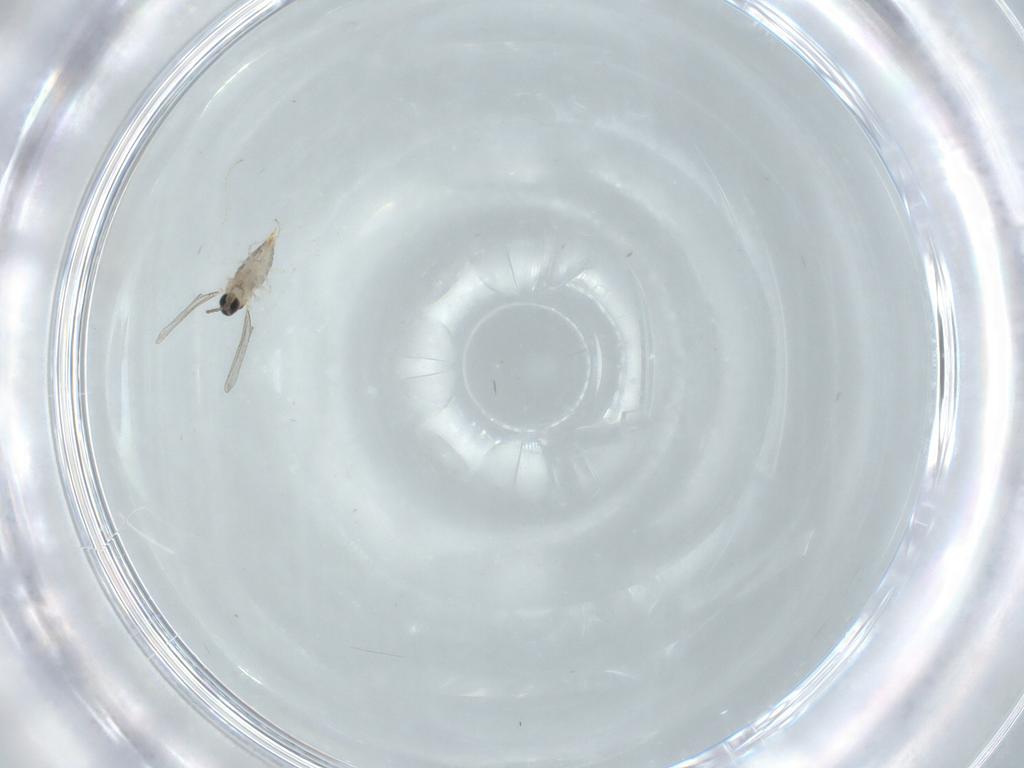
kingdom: Animalia
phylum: Arthropoda
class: Insecta
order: Diptera
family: Cecidomyiidae
